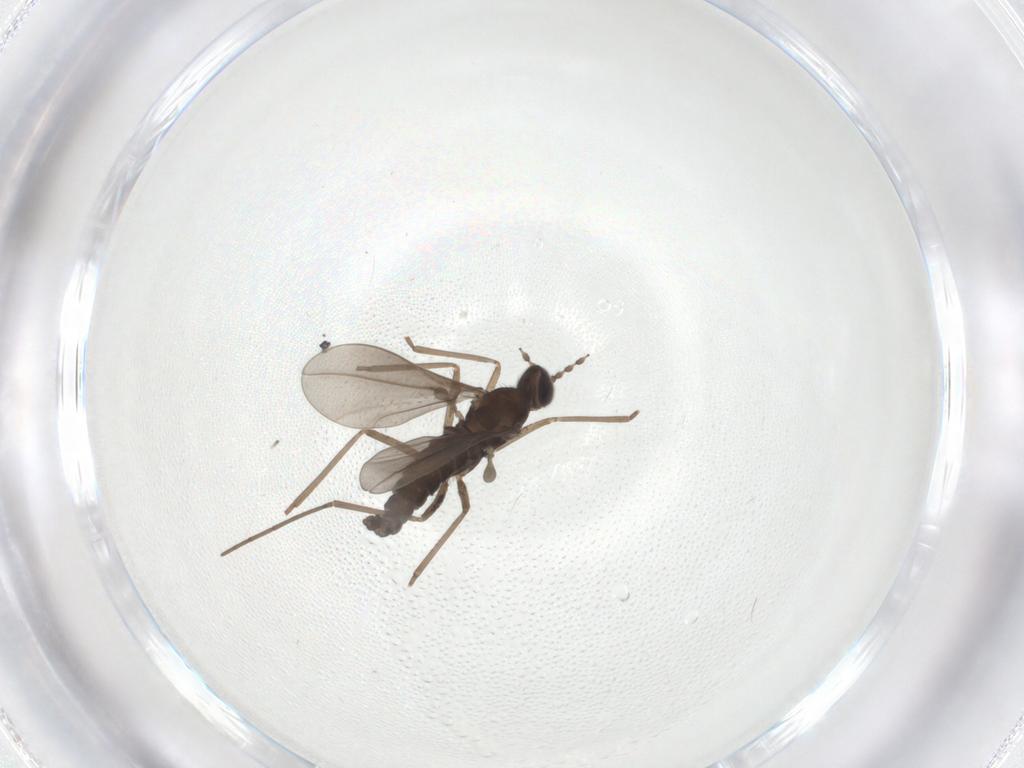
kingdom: Animalia
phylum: Arthropoda
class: Insecta
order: Diptera
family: Cecidomyiidae
